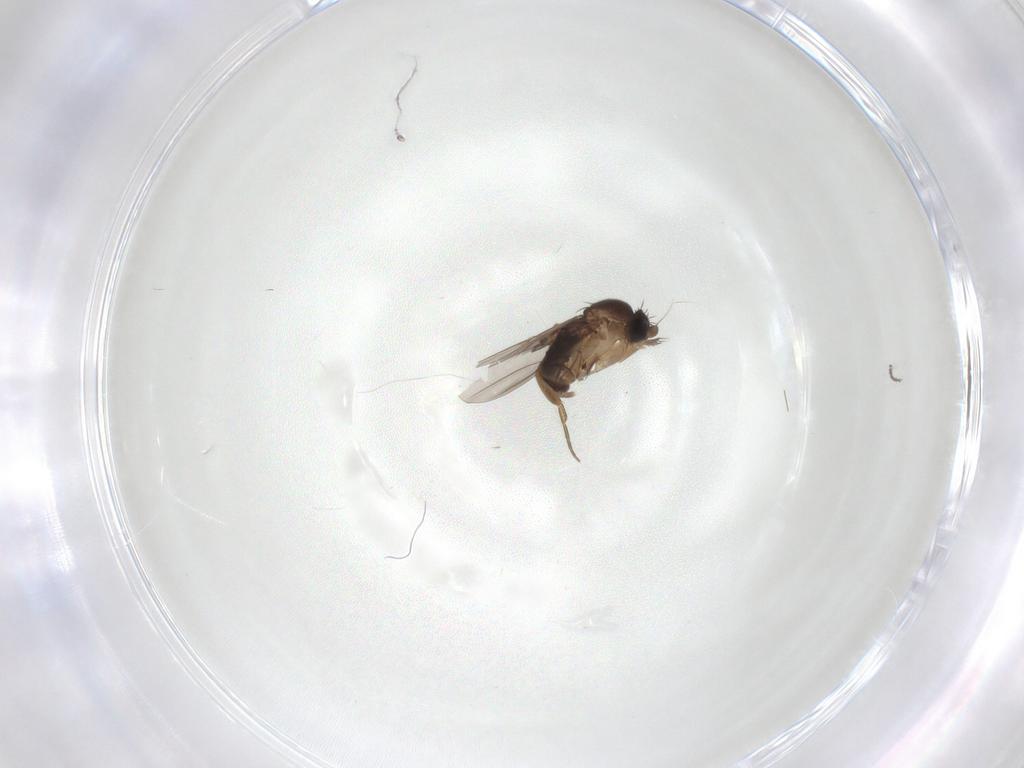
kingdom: Animalia
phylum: Arthropoda
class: Insecta
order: Diptera
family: Cecidomyiidae
